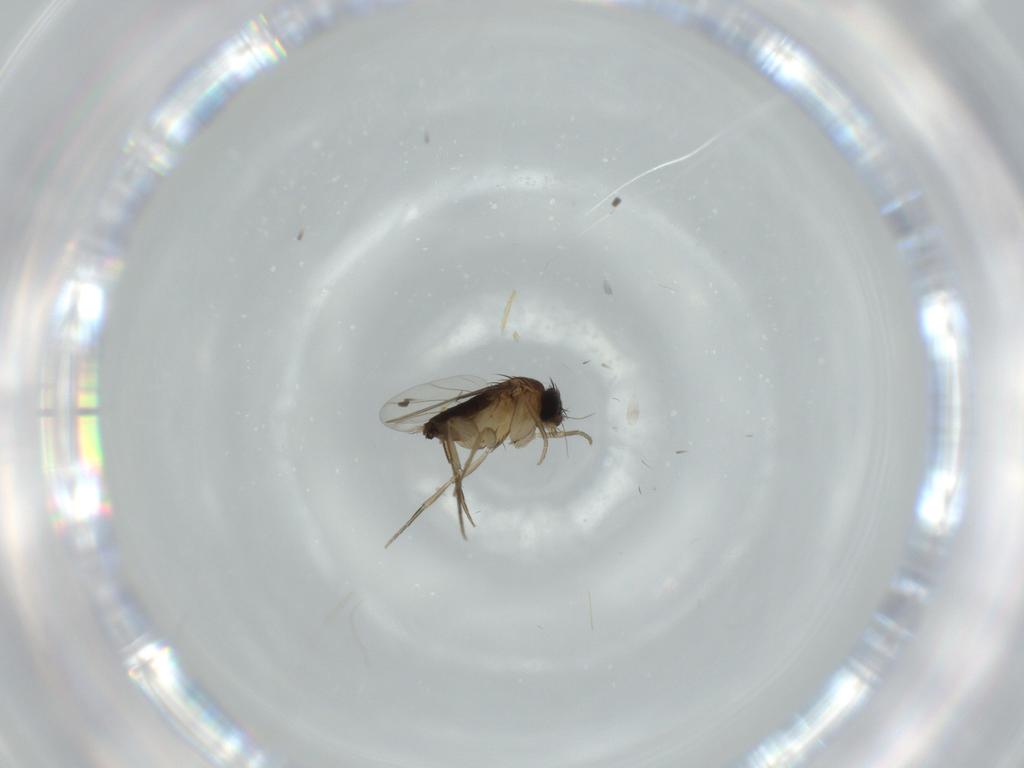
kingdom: Animalia
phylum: Arthropoda
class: Insecta
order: Diptera
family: Phoridae
